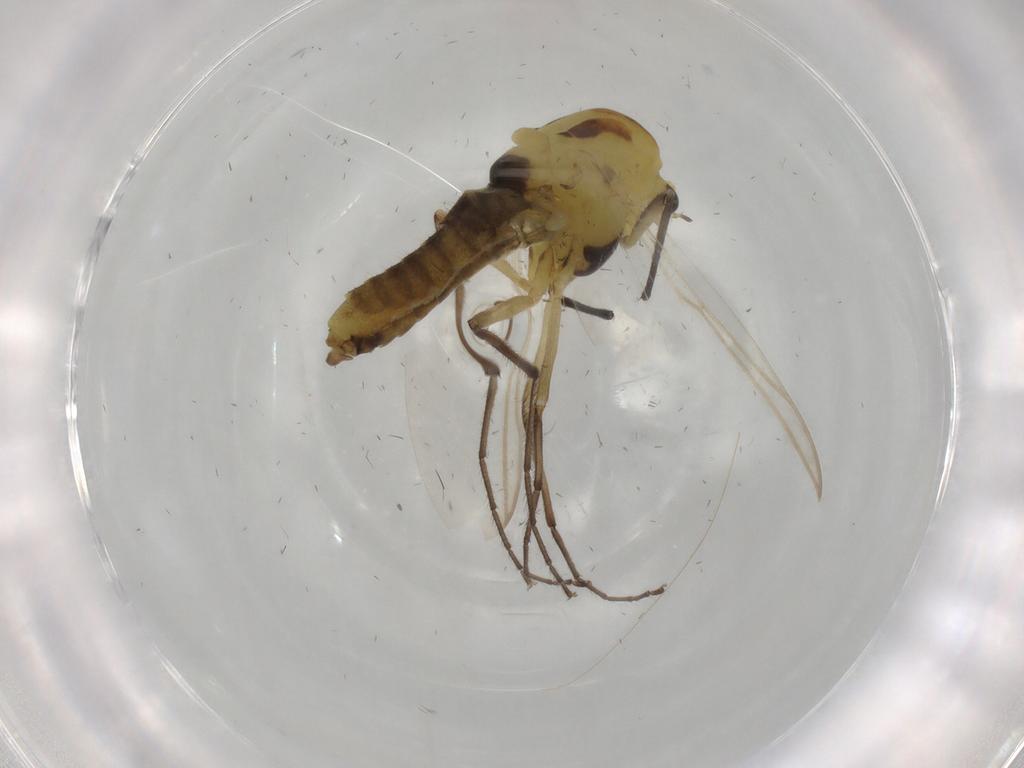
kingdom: Animalia
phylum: Arthropoda
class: Insecta
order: Diptera
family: Chironomidae
